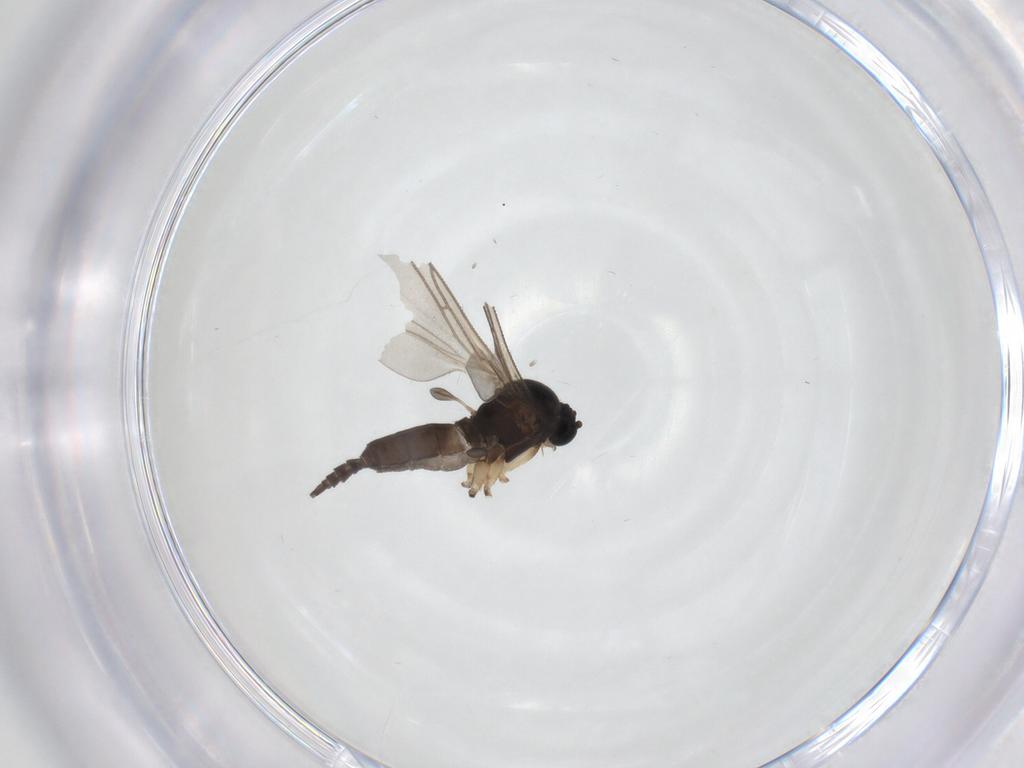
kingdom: Animalia
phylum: Arthropoda
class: Insecta
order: Diptera
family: Sciaridae
